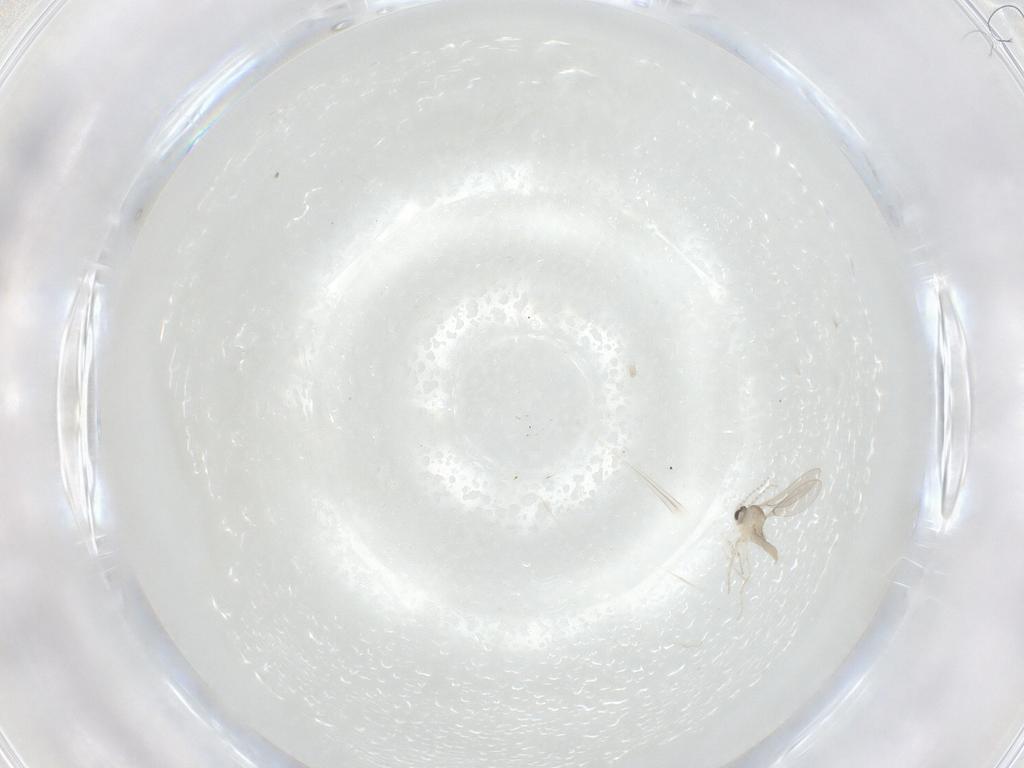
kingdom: Animalia
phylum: Arthropoda
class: Insecta
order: Diptera
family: Cecidomyiidae
